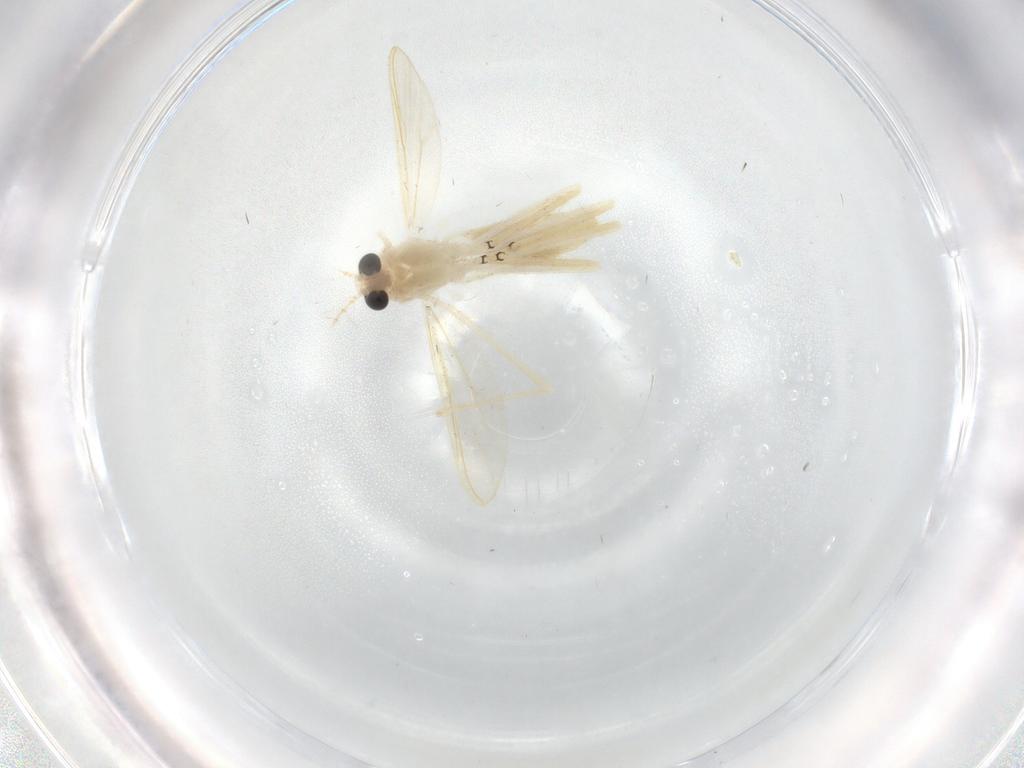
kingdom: Animalia
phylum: Arthropoda
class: Insecta
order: Diptera
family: Chironomidae
